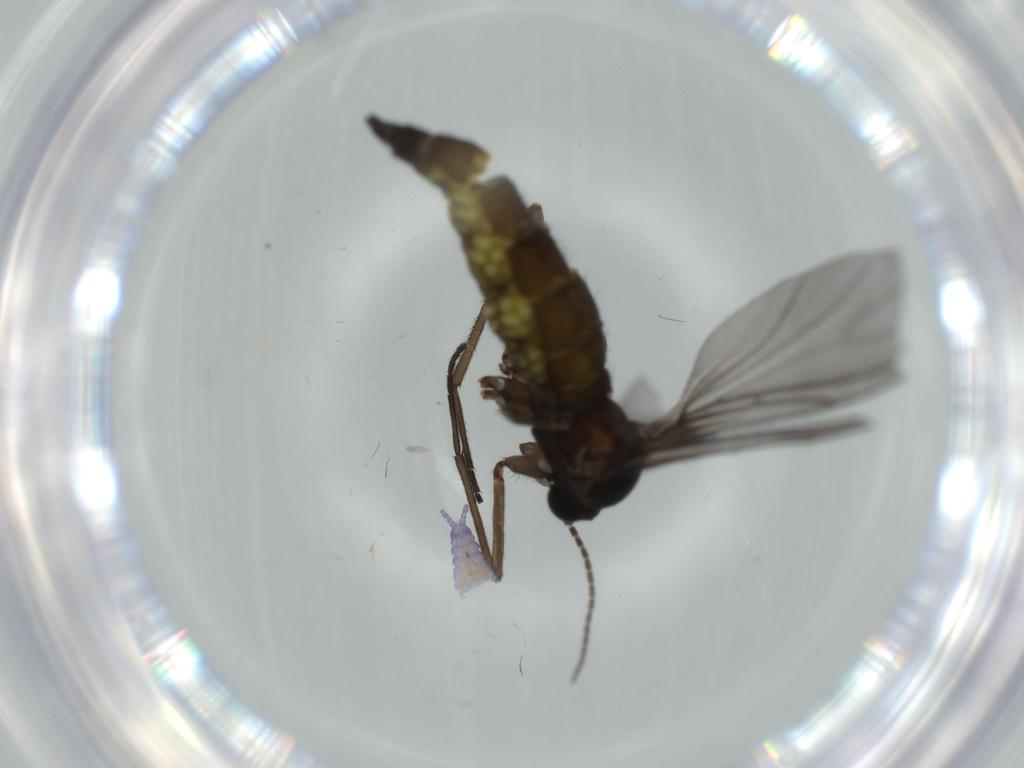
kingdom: Animalia
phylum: Arthropoda
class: Insecta
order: Diptera
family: Sciaridae
